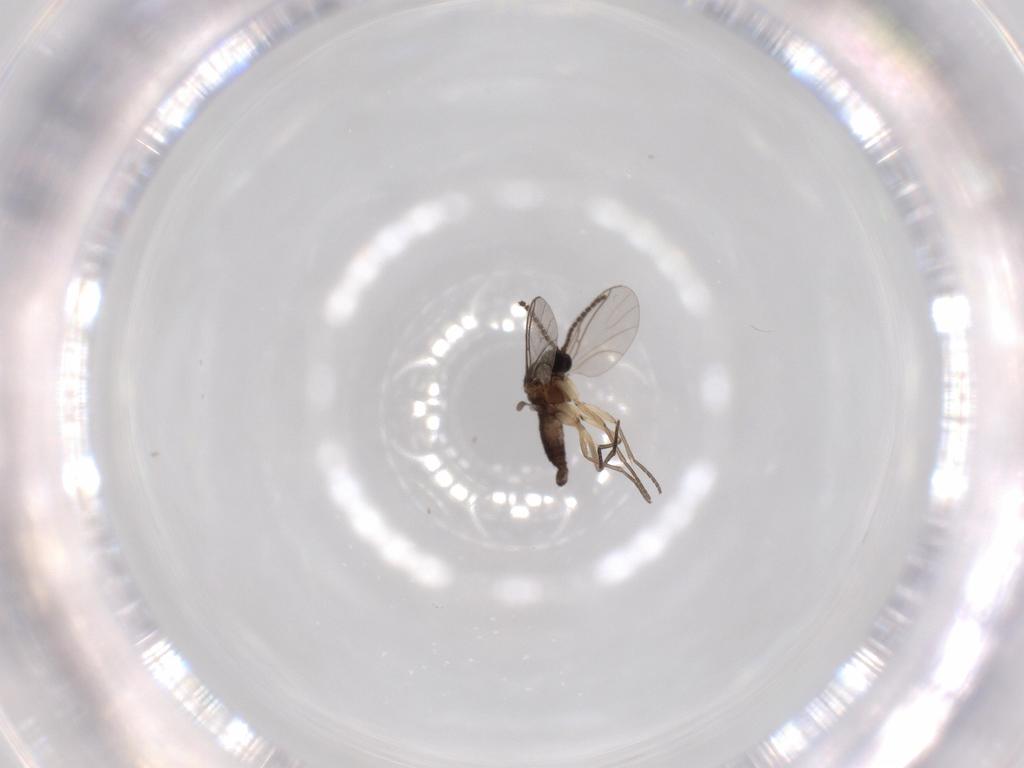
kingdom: Animalia
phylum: Arthropoda
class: Insecta
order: Diptera
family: Sciaridae
